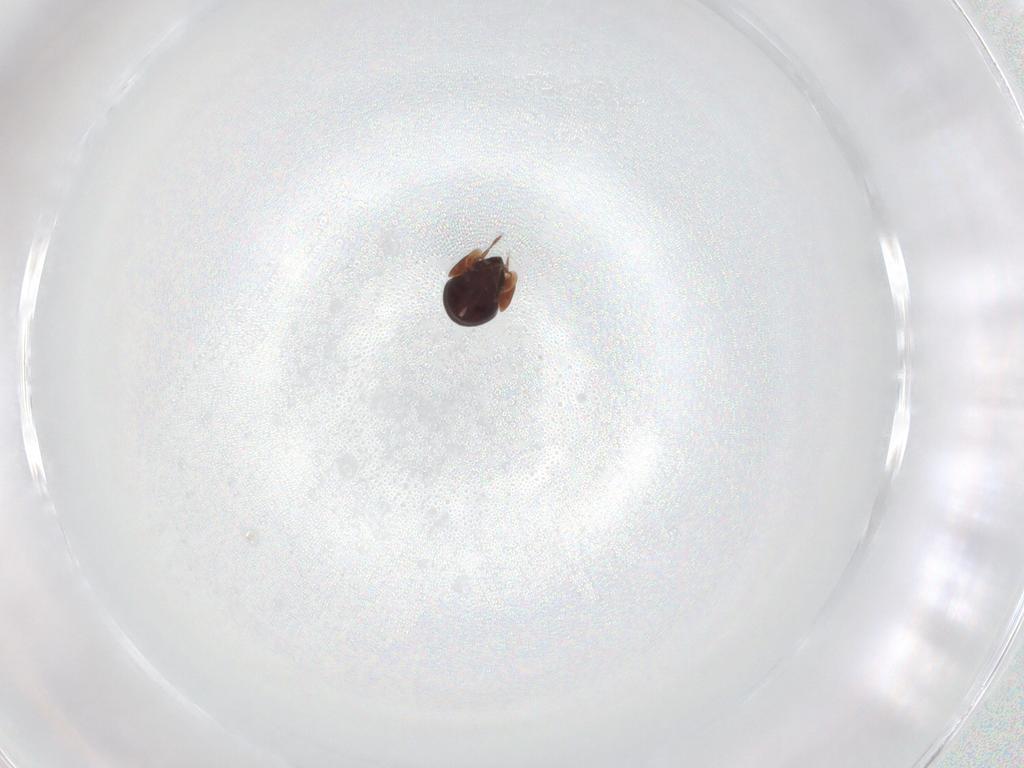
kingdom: Animalia
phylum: Arthropoda
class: Arachnida
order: Trombidiformes
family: Eupodidae
